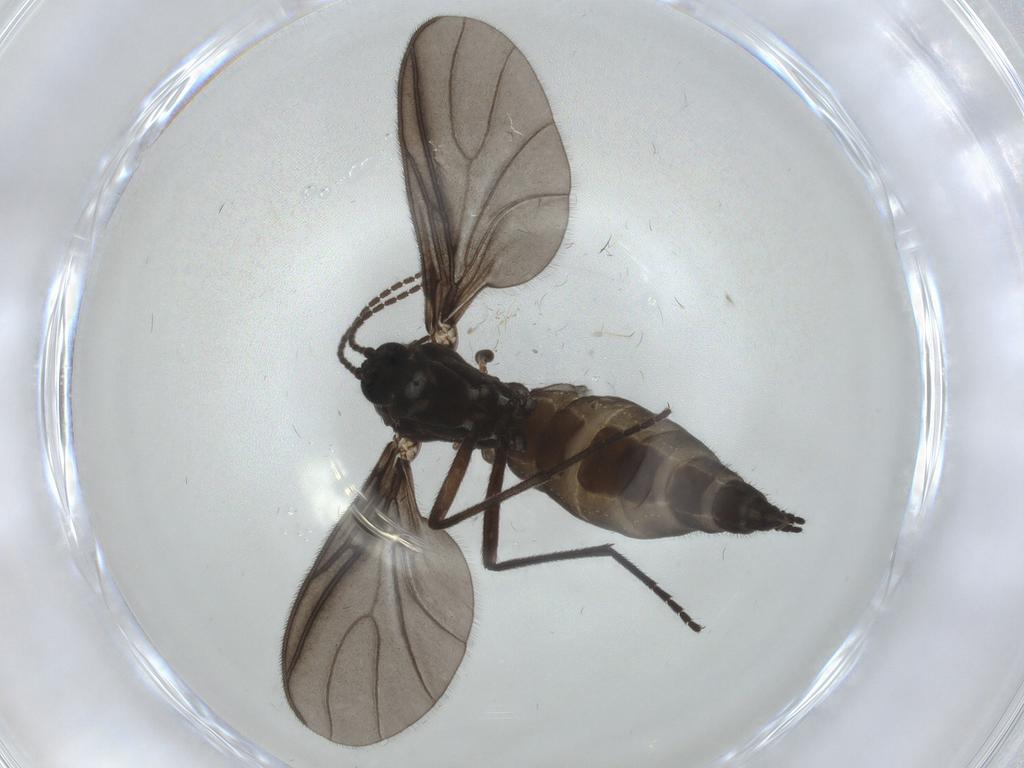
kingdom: Animalia
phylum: Arthropoda
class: Insecta
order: Diptera
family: Sciaridae
